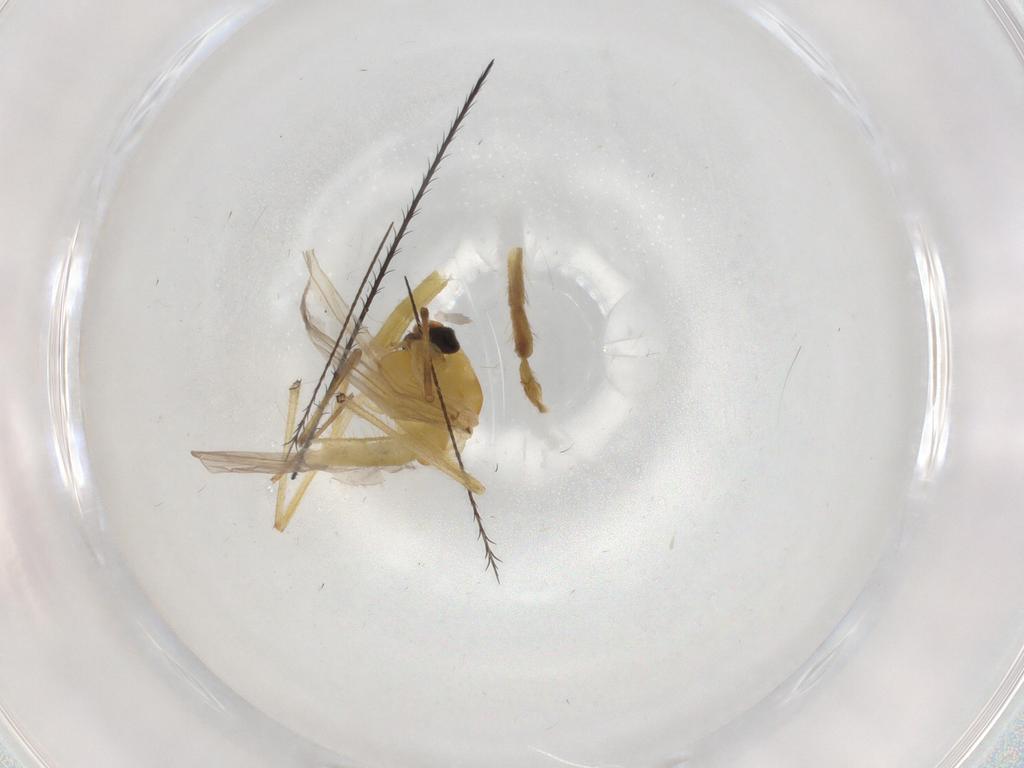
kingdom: Animalia
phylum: Arthropoda
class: Insecta
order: Diptera
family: Chironomidae
